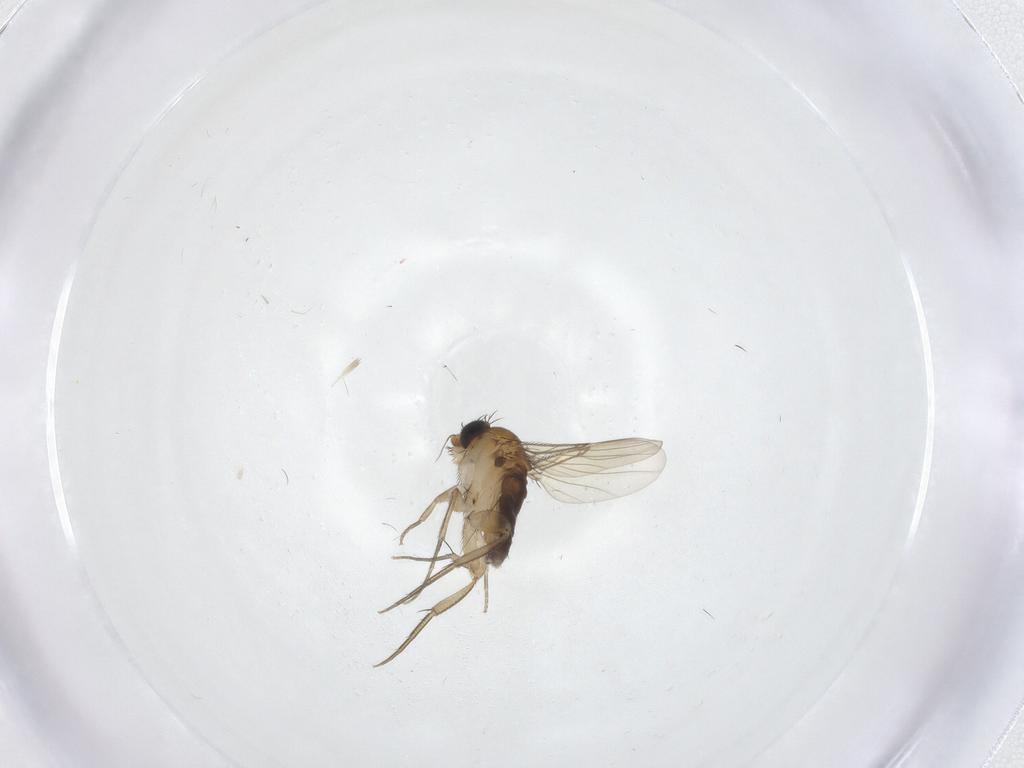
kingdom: Animalia
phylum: Arthropoda
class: Insecta
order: Diptera
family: Phoridae
